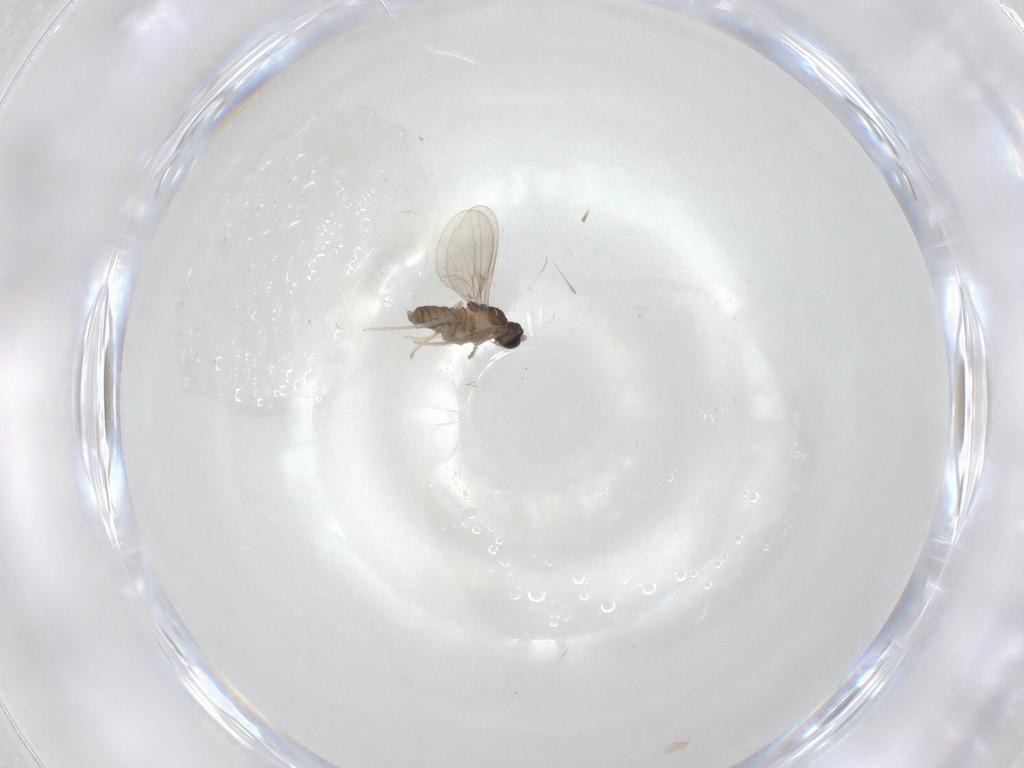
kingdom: Animalia
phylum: Arthropoda
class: Insecta
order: Diptera
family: Cecidomyiidae
